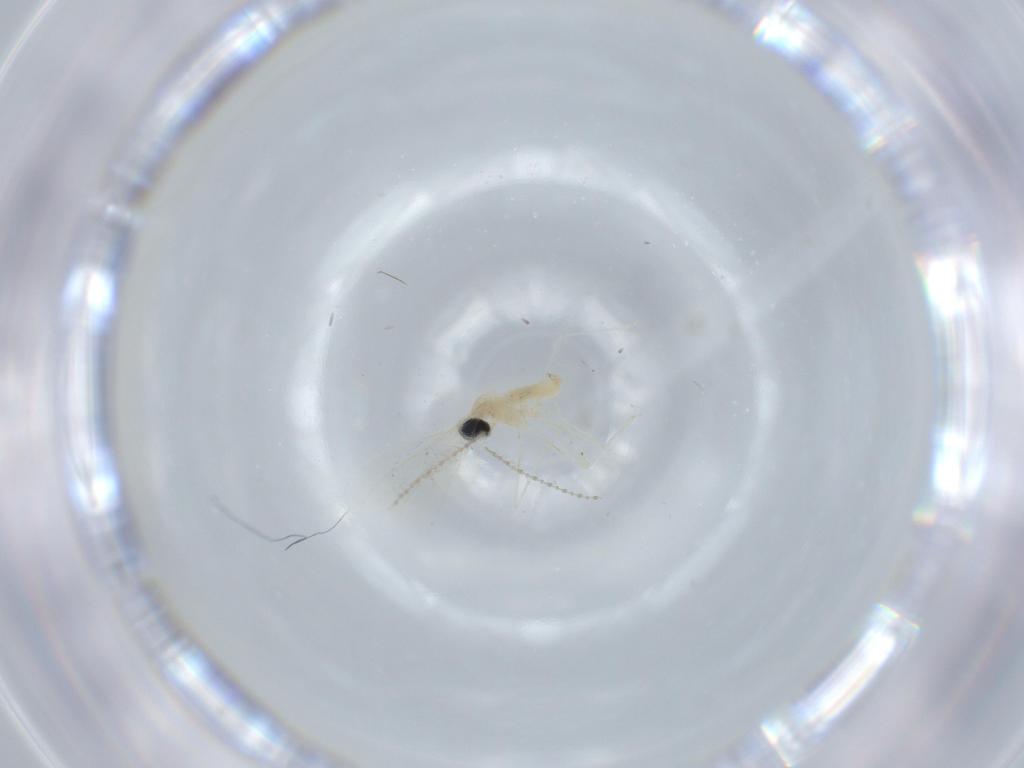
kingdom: Animalia
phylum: Arthropoda
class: Insecta
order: Diptera
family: Cecidomyiidae
